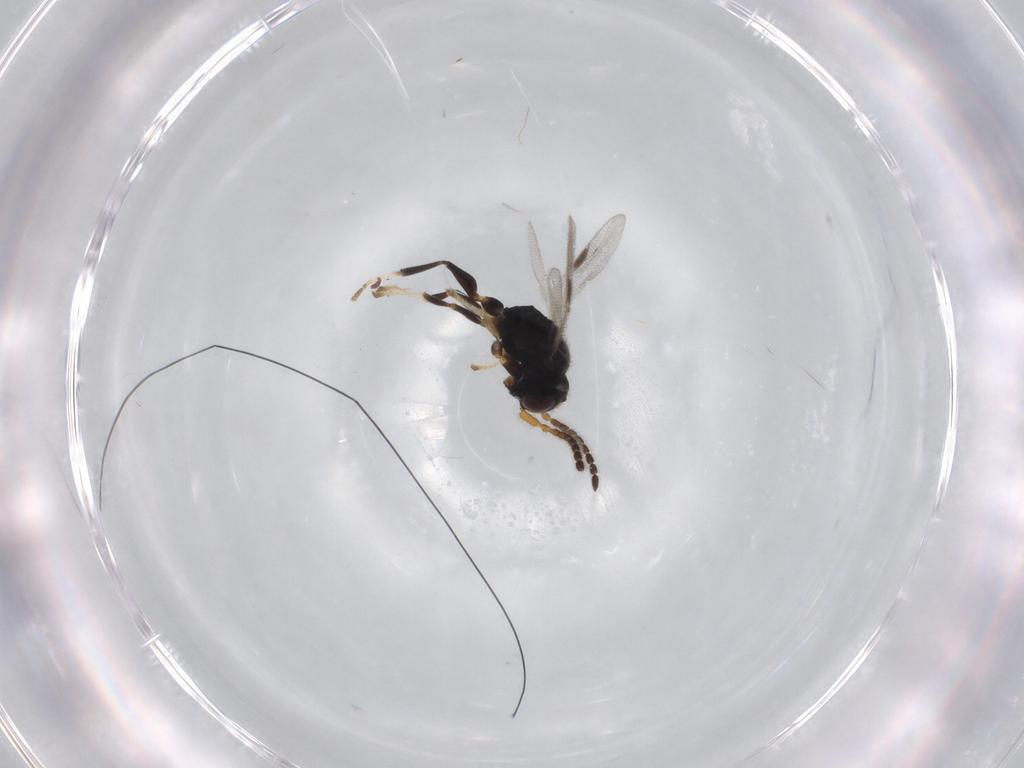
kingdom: Animalia
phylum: Arthropoda
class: Insecta
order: Hymenoptera
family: Dryinidae
